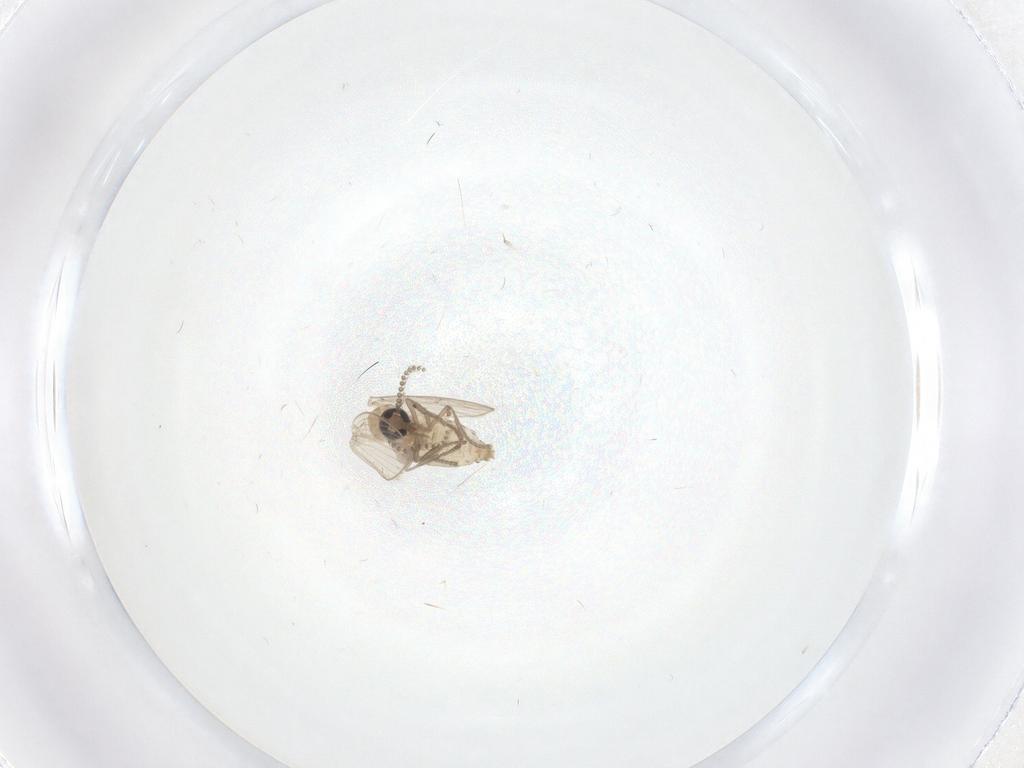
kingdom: Animalia
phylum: Arthropoda
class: Insecta
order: Diptera
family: Psychodidae
